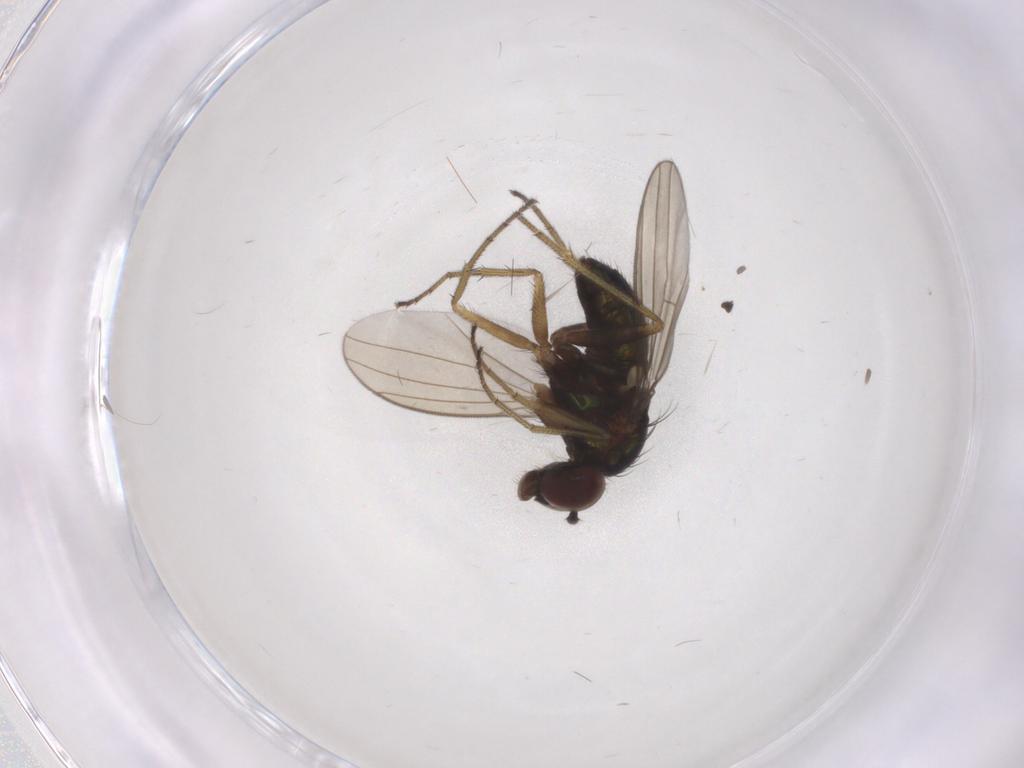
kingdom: Animalia
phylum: Arthropoda
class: Insecta
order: Diptera
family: Dolichopodidae
